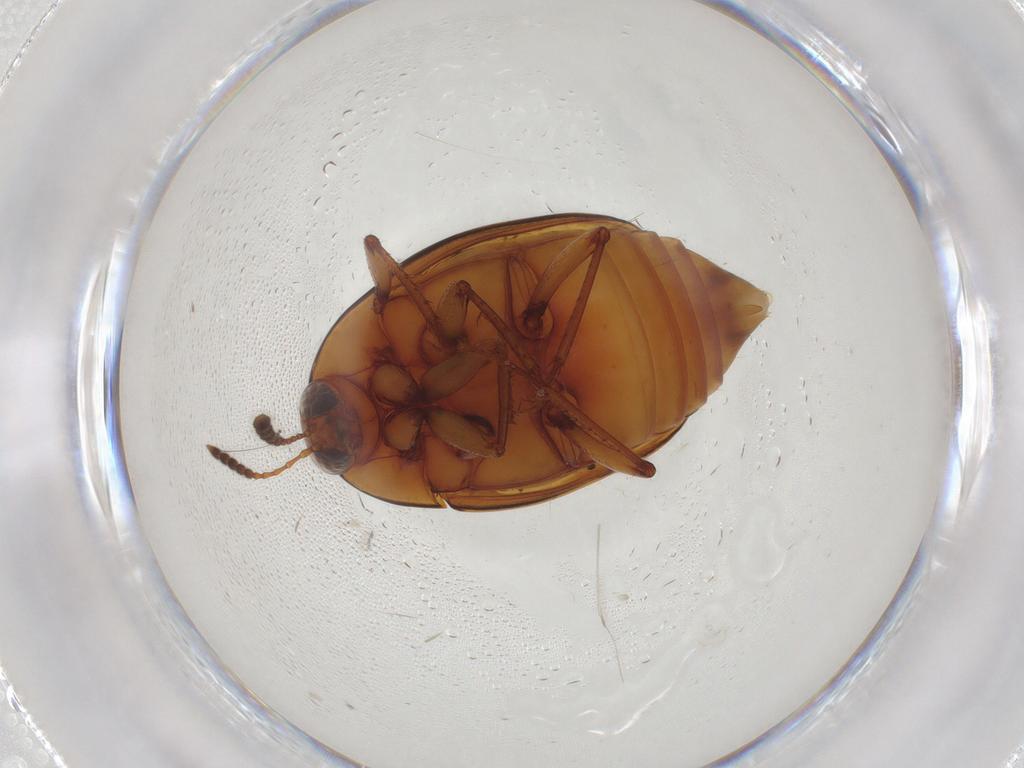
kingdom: Animalia
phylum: Arthropoda
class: Insecta
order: Coleoptera
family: Staphylinidae
